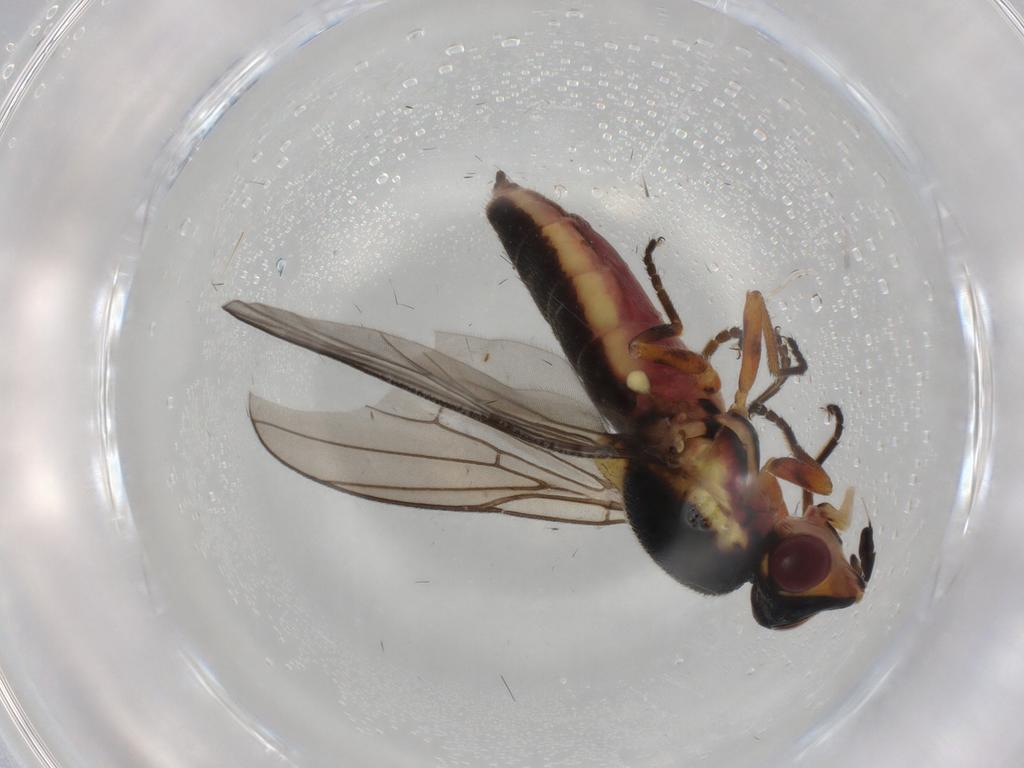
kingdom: Animalia
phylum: Arthropoda
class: Insecta
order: Diptera
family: Chloropidae
